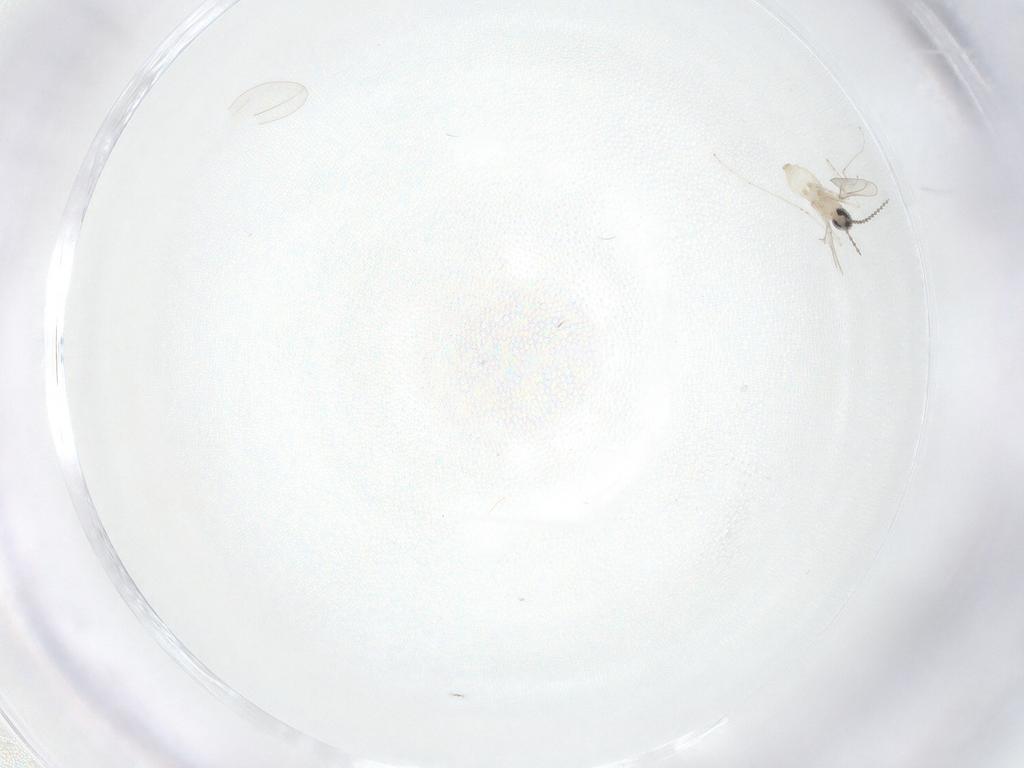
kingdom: Animalia
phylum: Arthropoda
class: Insecta
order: Diptera
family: Cecidomyiidae
